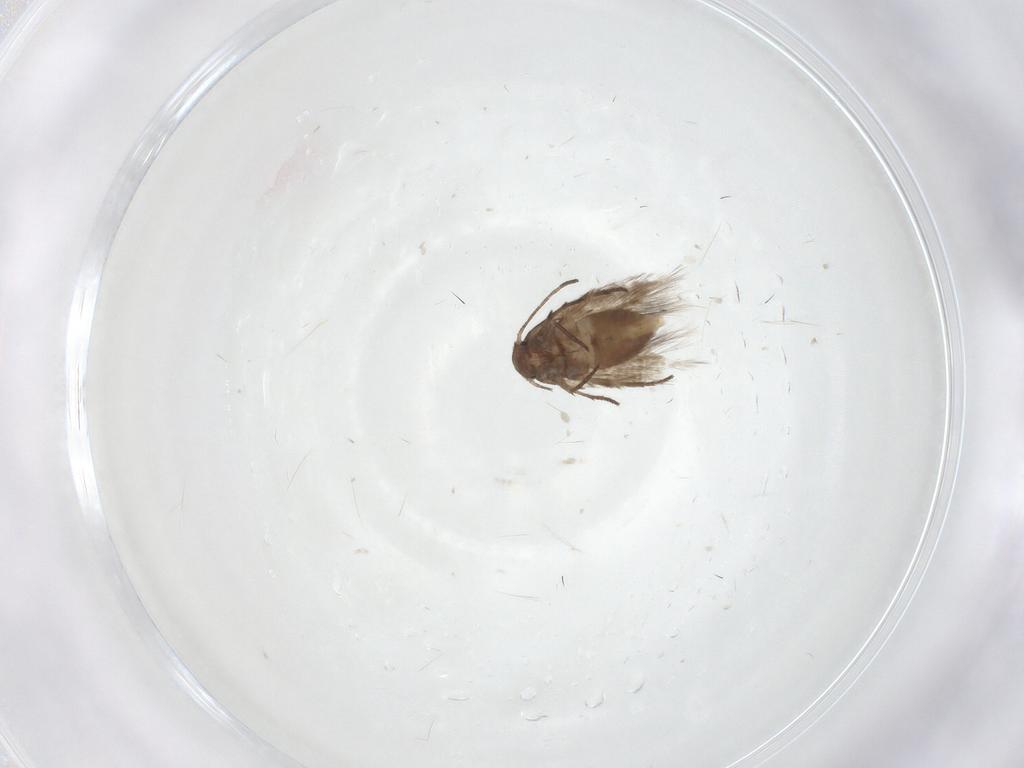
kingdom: Animalia
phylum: Arthropoda
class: Insecta
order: Lepidoptera
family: Lyonetiidae
